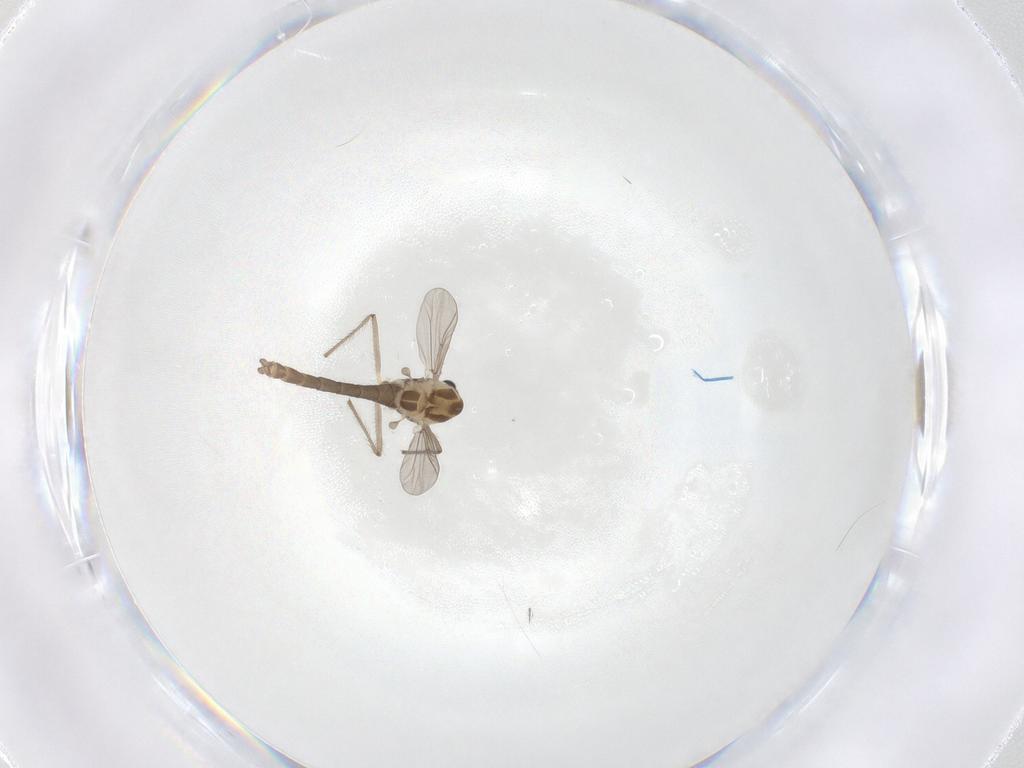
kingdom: Animalia
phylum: Arthropoda
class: Insecta
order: Diptera
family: Chironomidae
